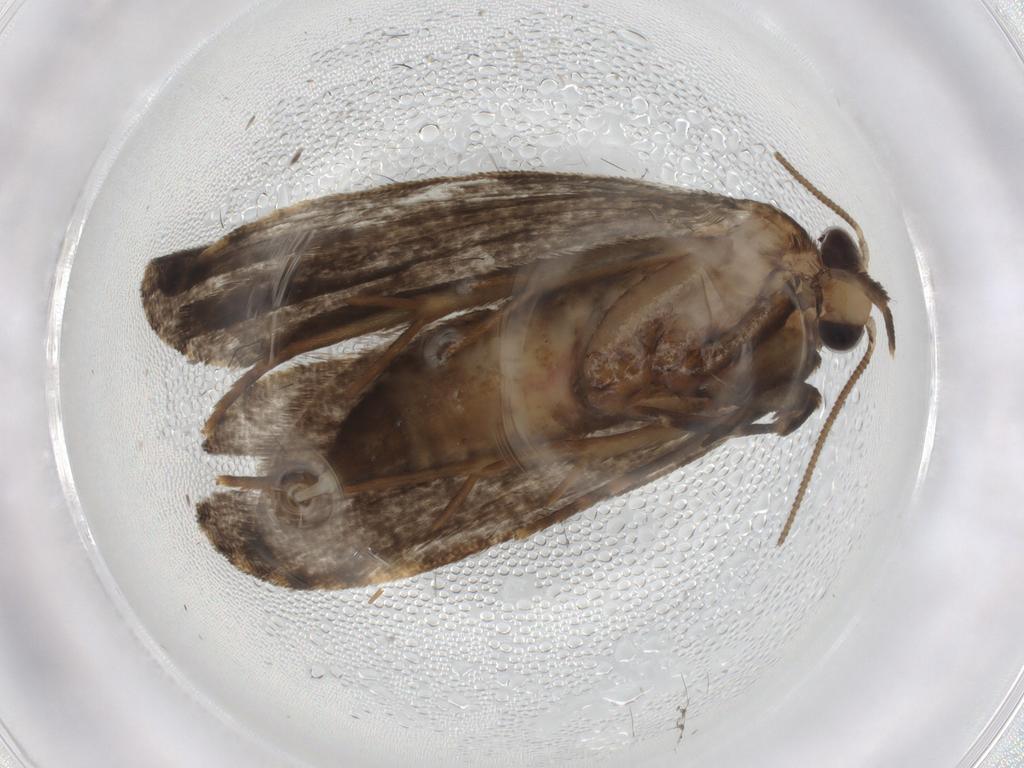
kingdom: Animalia
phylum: Arthropoda
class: Insecta
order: Lepidoptera
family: Tineidae
